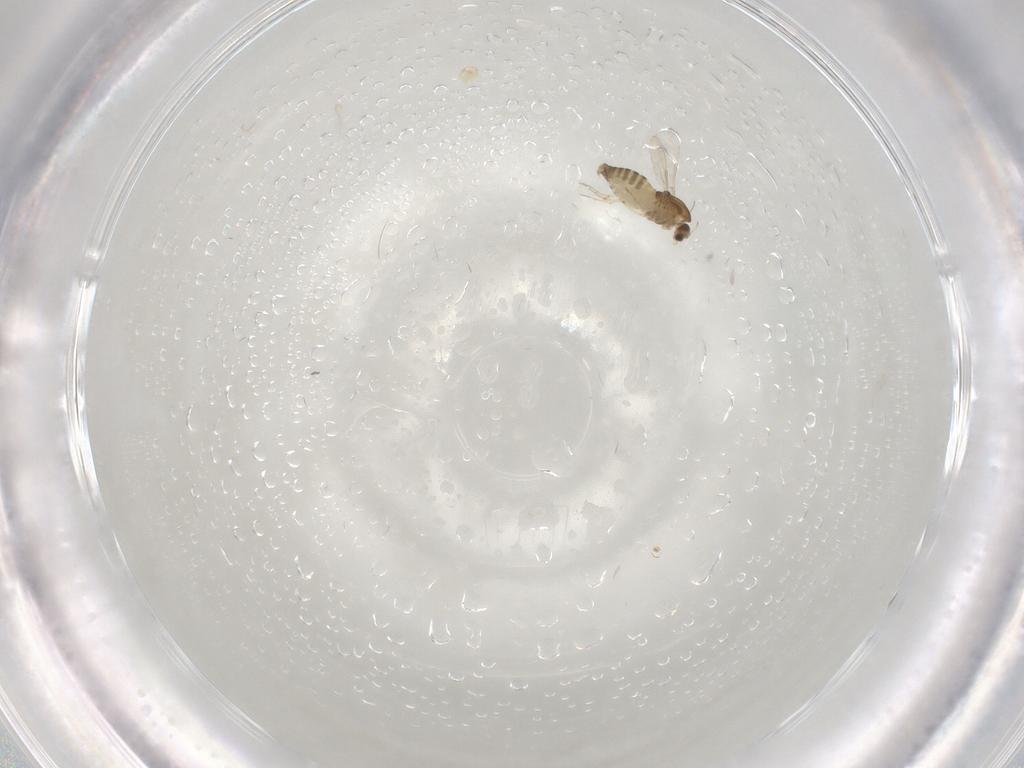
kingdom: Animalia
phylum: Arthropoda
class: Insecta
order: Diptera
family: Chironomidae
